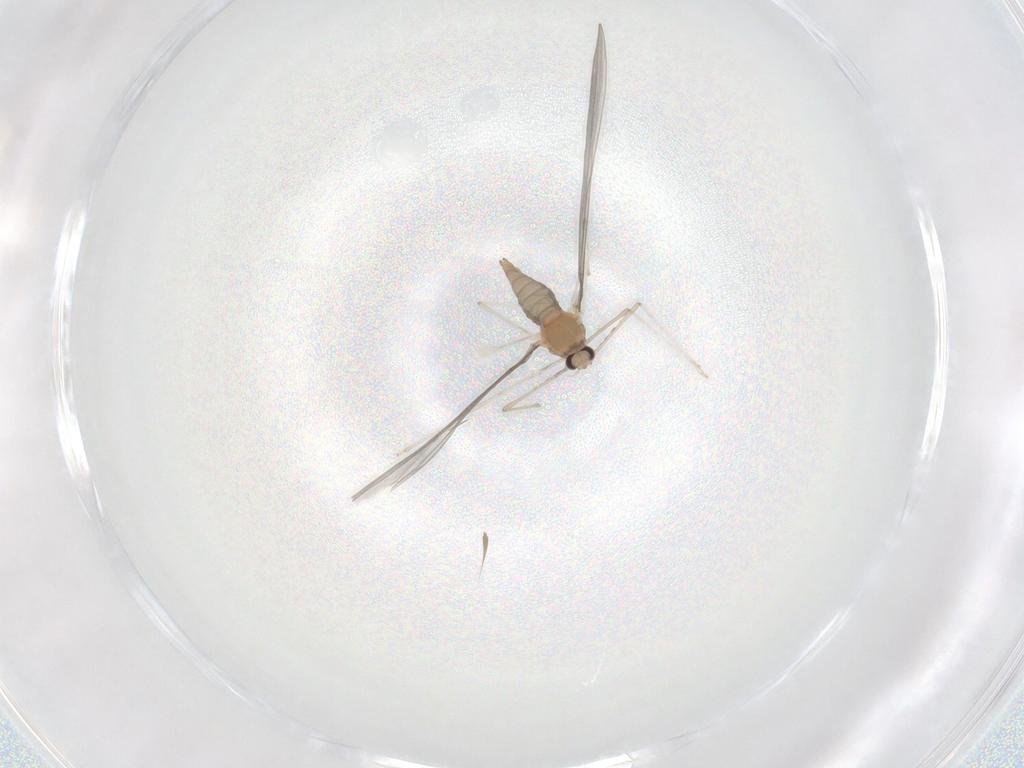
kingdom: Animalia
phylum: Arthropoda
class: Insecta
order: Diptera
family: Cecidomyiidae
